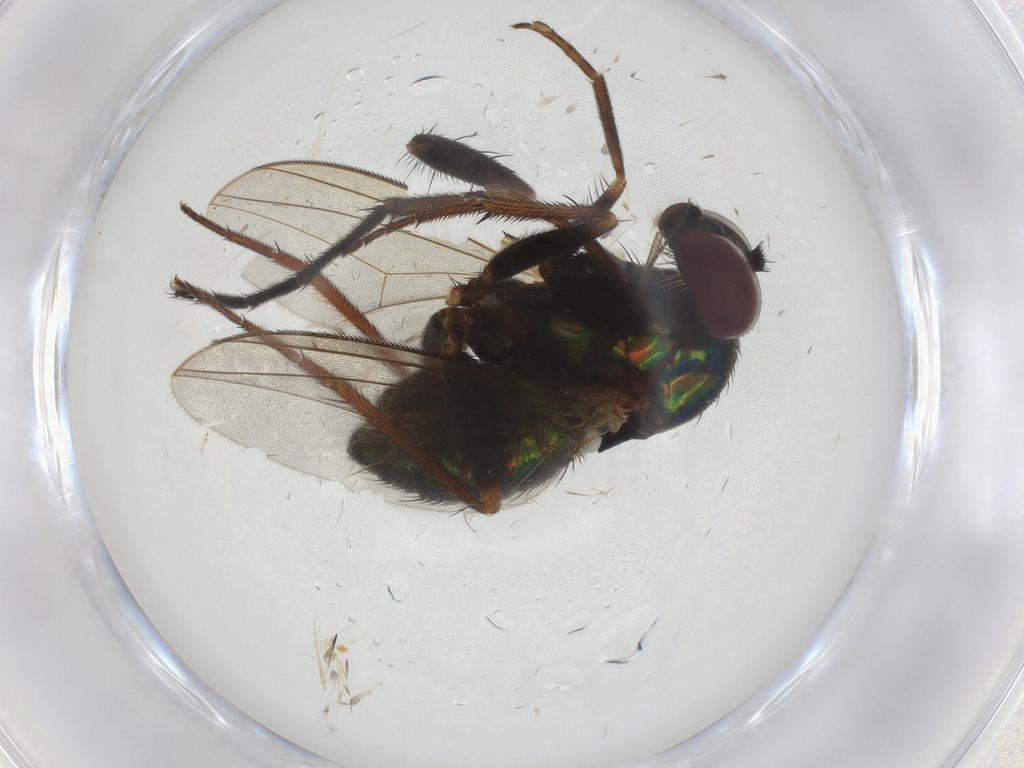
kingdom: Animalia
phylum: Arthropoda
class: Insecta
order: Diptera
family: Dolichopodidae
